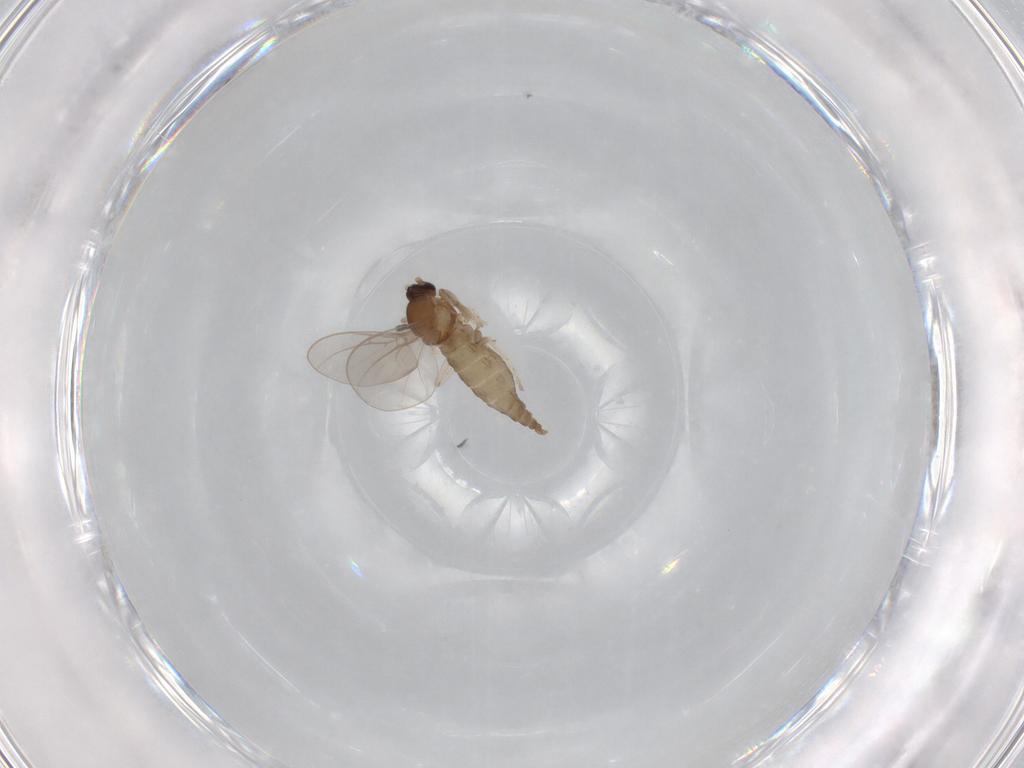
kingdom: Animalia
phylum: Arthropoda
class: Insecta
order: Diptera
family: Cecidomyiidae
